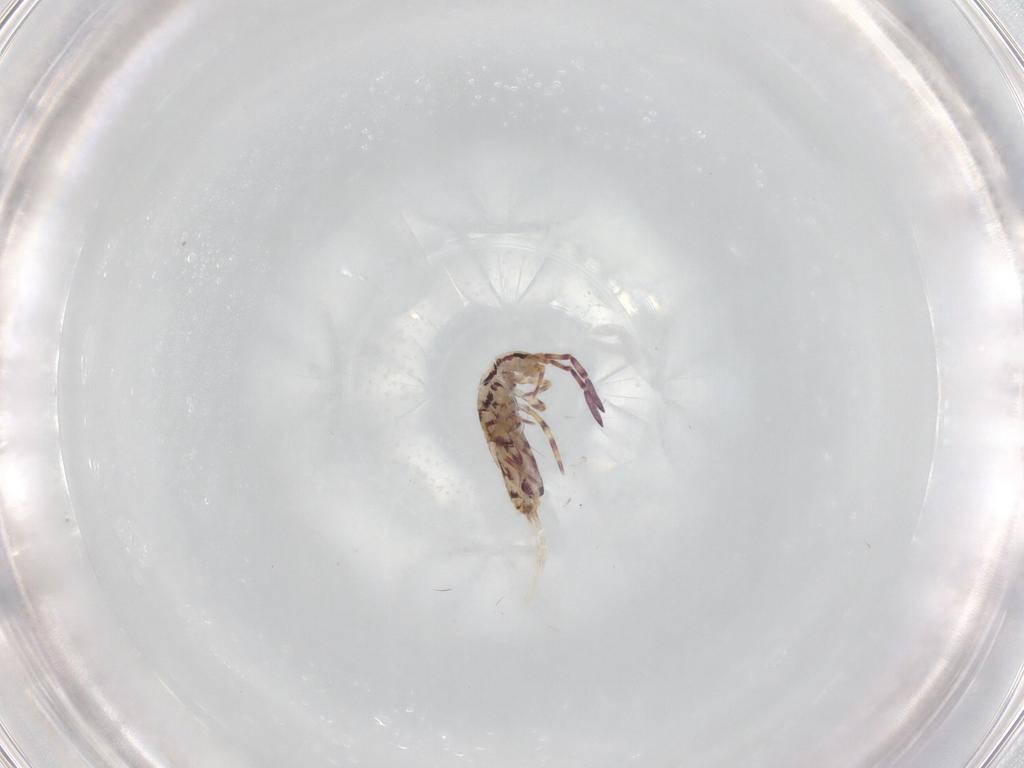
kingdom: Animalia
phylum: Arthropoda
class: Collembola
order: Entomobryomorpha
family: Entomobryidae
